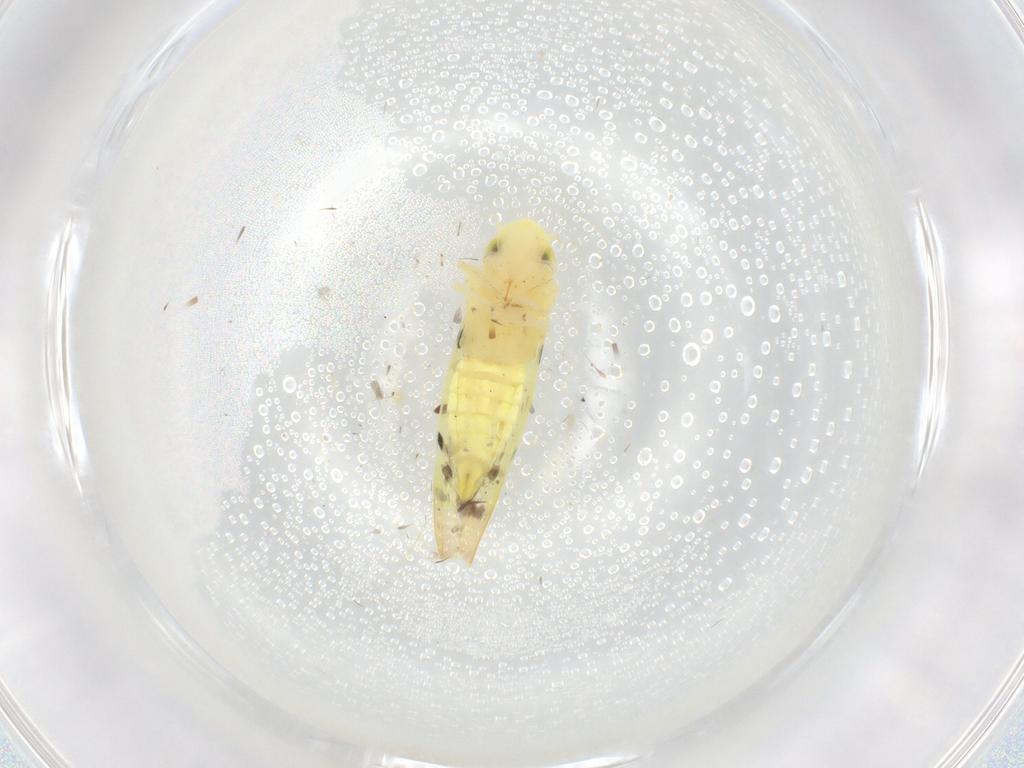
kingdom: Animalia
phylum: Arthropoda
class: Insecta
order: Hemiptera
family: Cicadellidae
